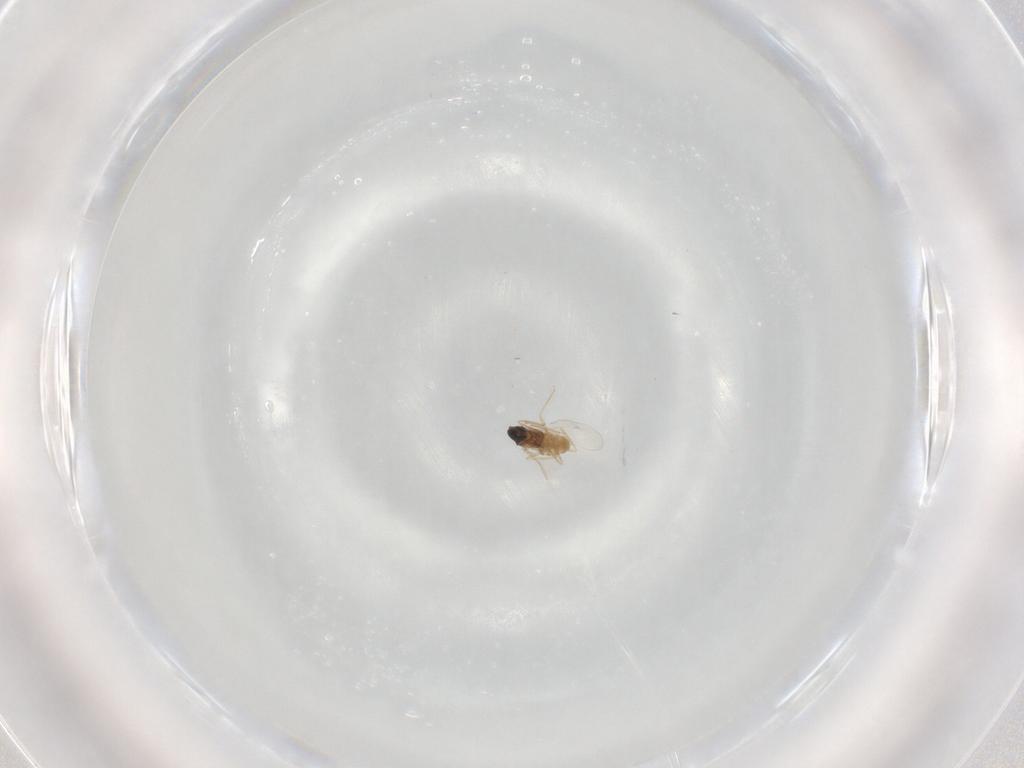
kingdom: Animalia
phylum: Arthropoda
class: Insecta
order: Diptera
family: Cecidomyiidae
